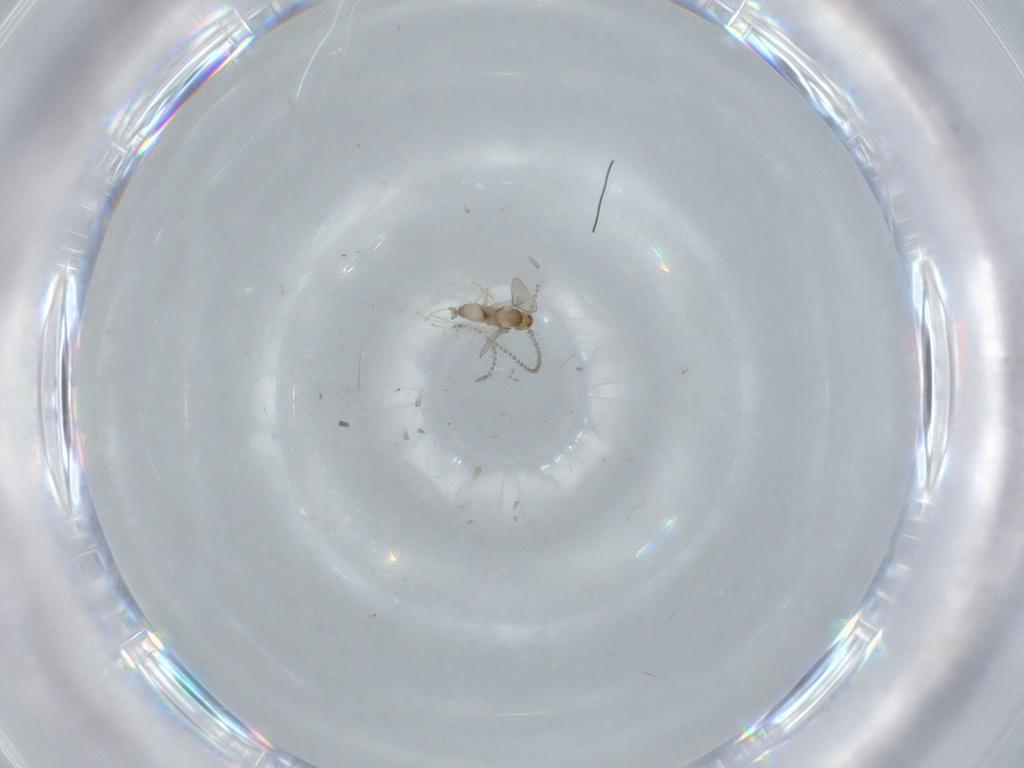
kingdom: Animalia
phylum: Arthropoda
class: Insecta
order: Diptera
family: Cecidomyiidae
